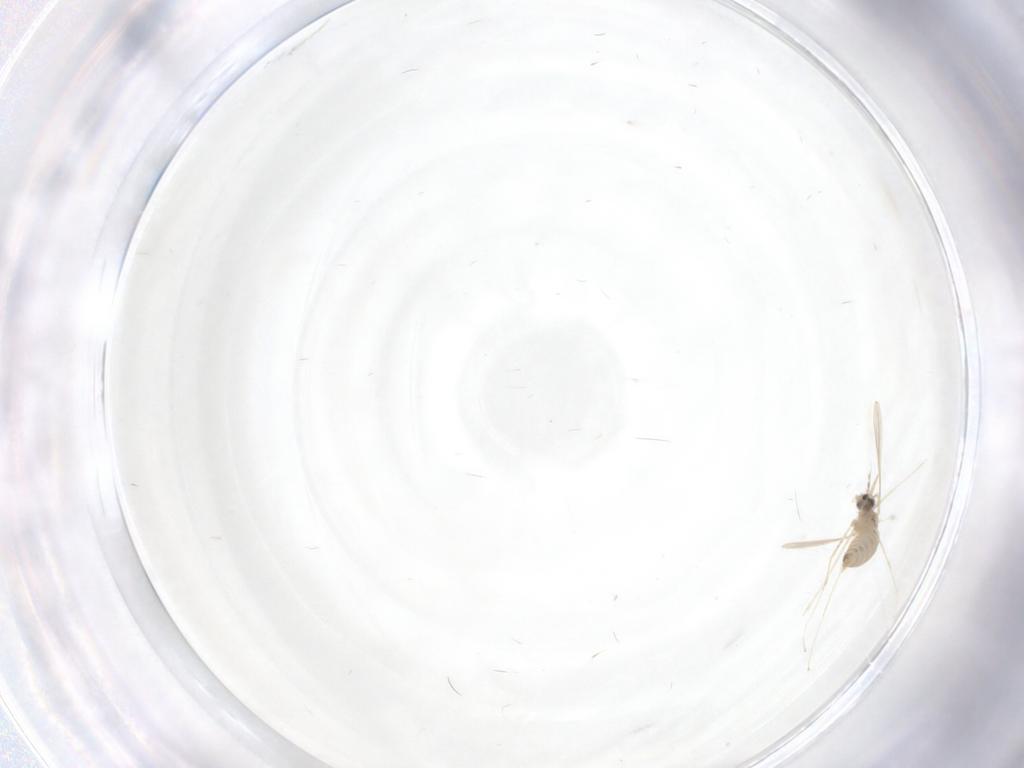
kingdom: Animalia
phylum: Arthropoda
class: Insecta
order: Diptera
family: Cecidomyiidae
